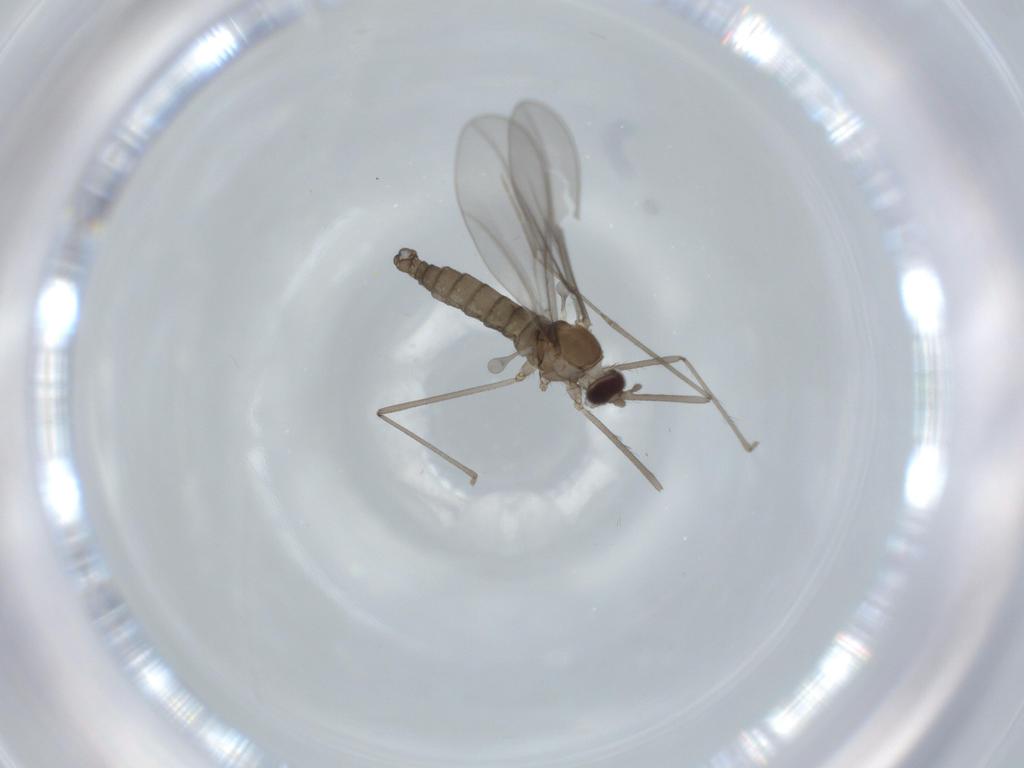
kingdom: Animalia
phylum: Arthropoda
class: Insecta
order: Diptera
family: Cecidomyiidae
